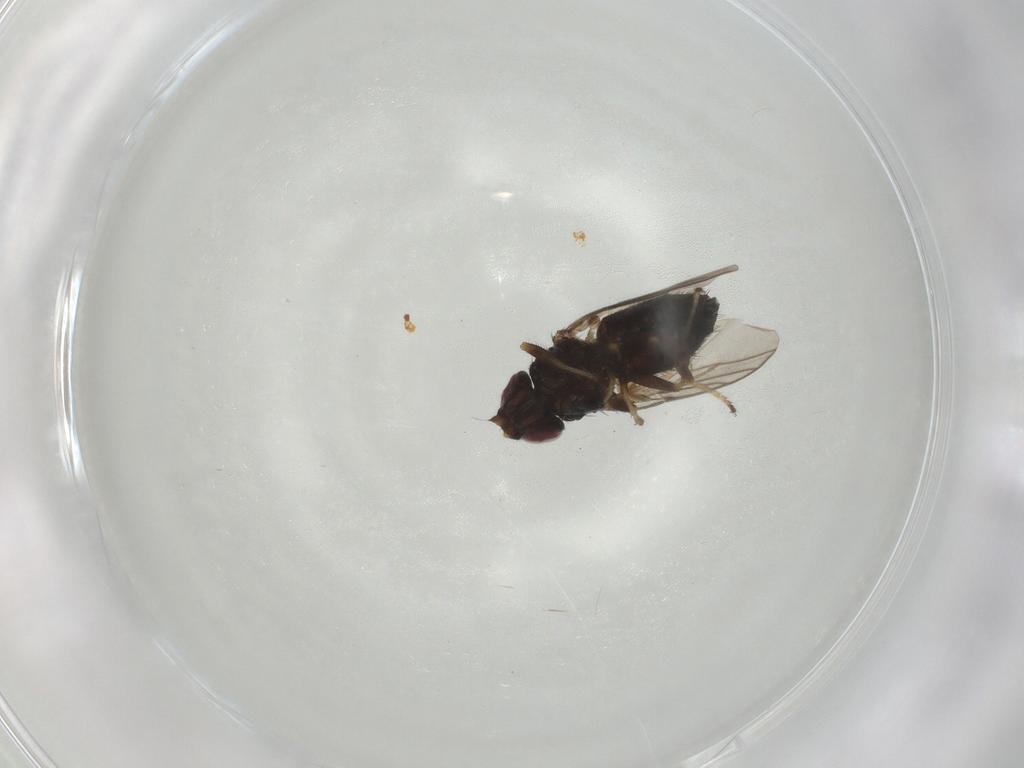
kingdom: Animalia
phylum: Arthropoda
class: Insecta
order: Diptera
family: Chloropidae
